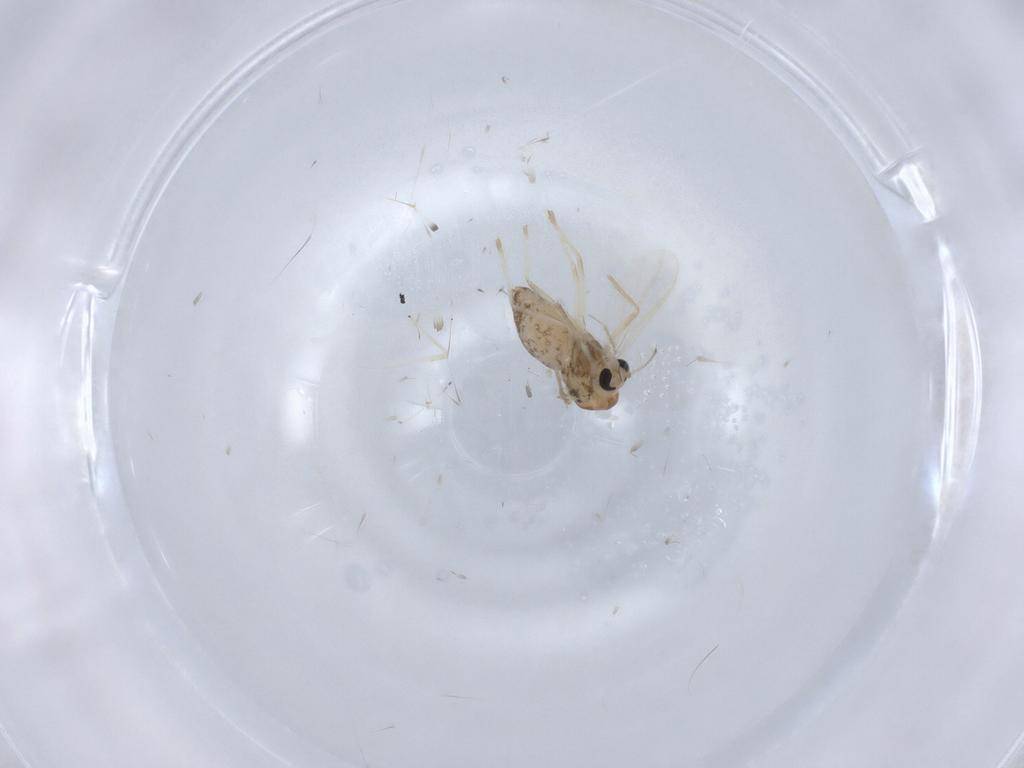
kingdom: Animalia
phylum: Arthropoda
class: Insecta
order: Diptera
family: Chironomidae
